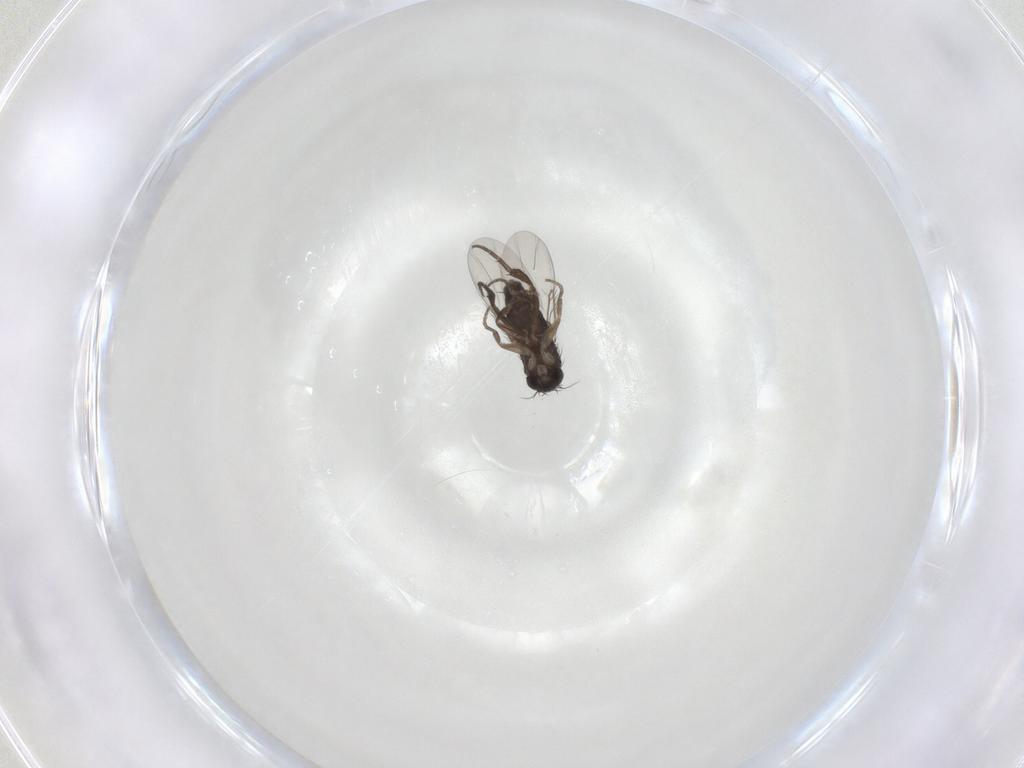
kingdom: Animalia
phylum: Arthropoda
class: Insecta
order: Diptera
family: Phoridae
